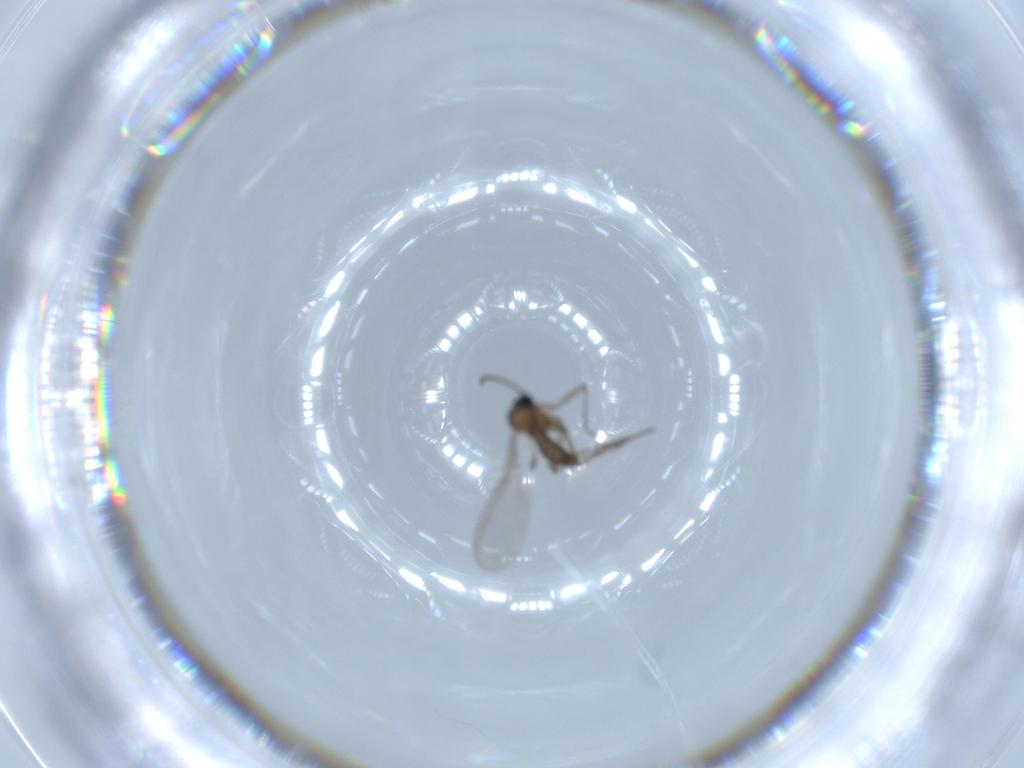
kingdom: Animalia
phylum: Arthropoda
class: Insecta
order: Diptera
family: Sciaridae
